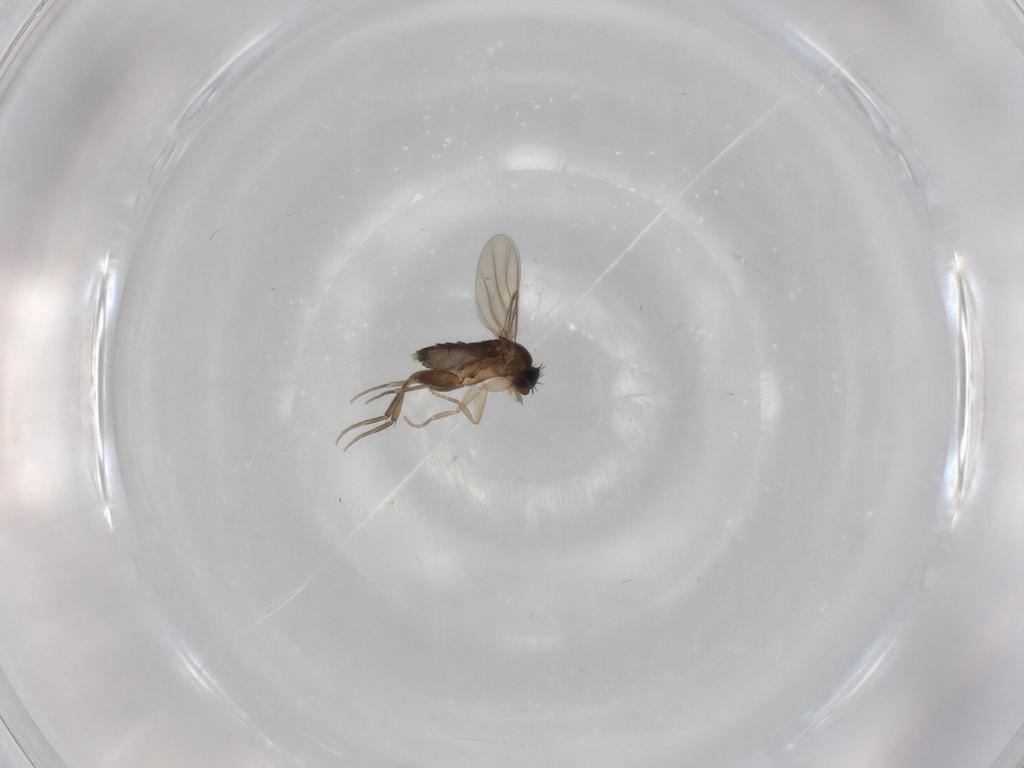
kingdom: Animalia
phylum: Arthropoda
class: Insecta
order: Diptera
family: Phoridae
